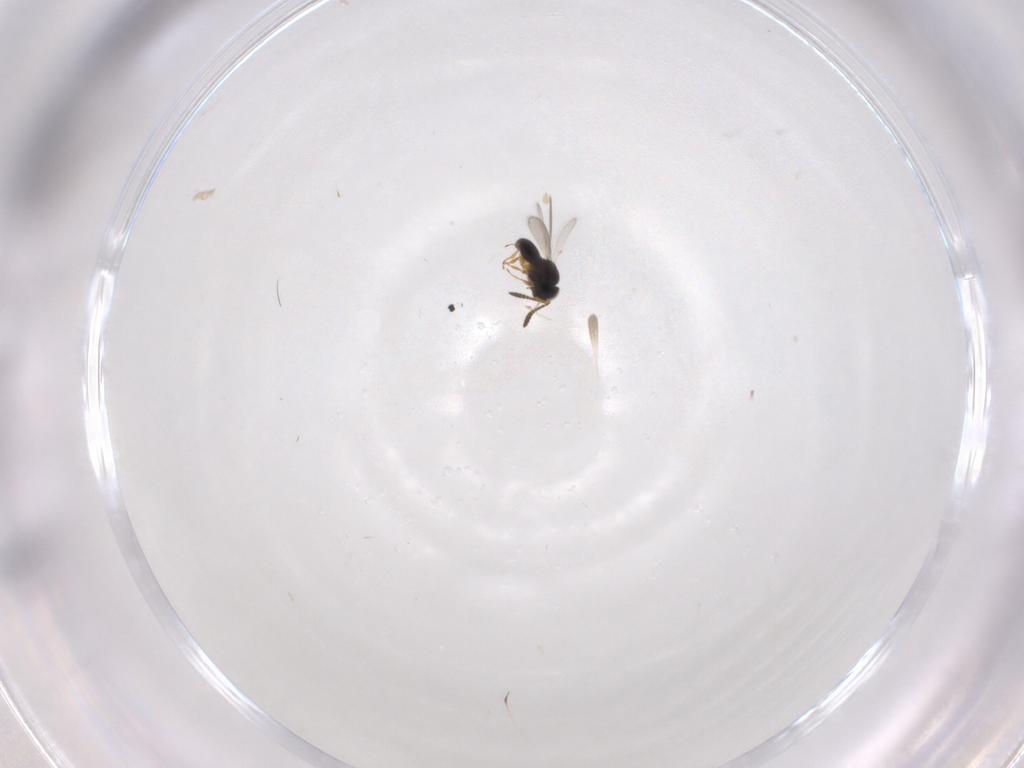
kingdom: Animalia
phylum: Arthropoda
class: Insecta
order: Hymenoptera
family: Scelionidae
